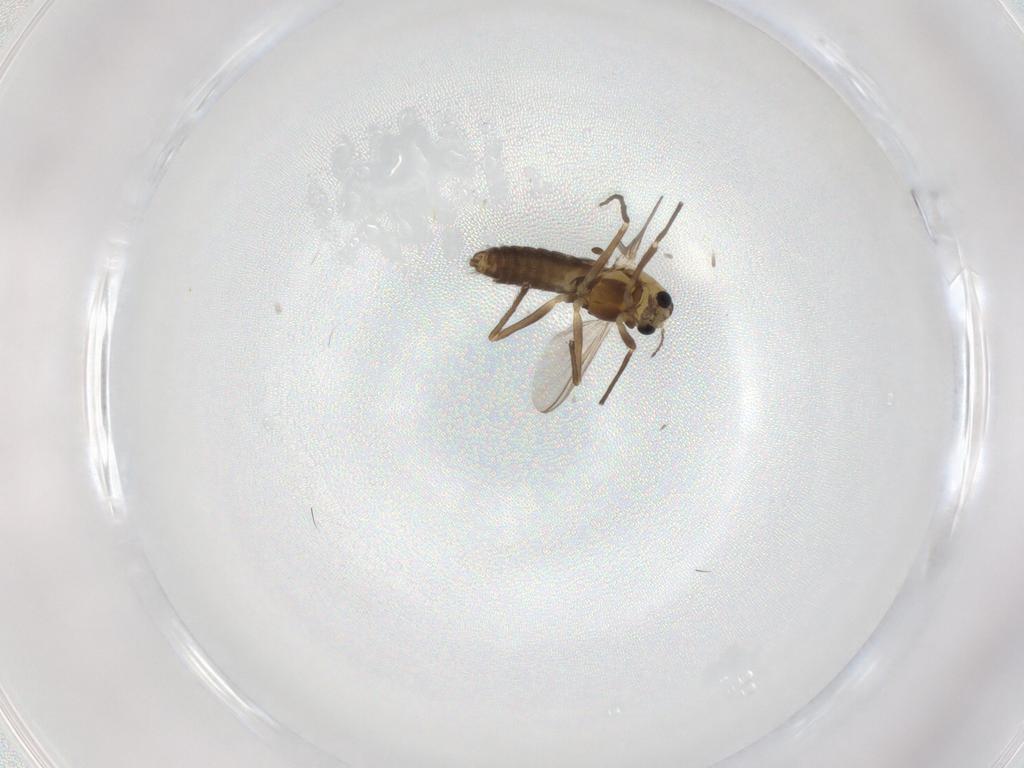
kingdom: Animalia
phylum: Arthropoda
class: Insecta
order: Diptera
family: Chironomidae
